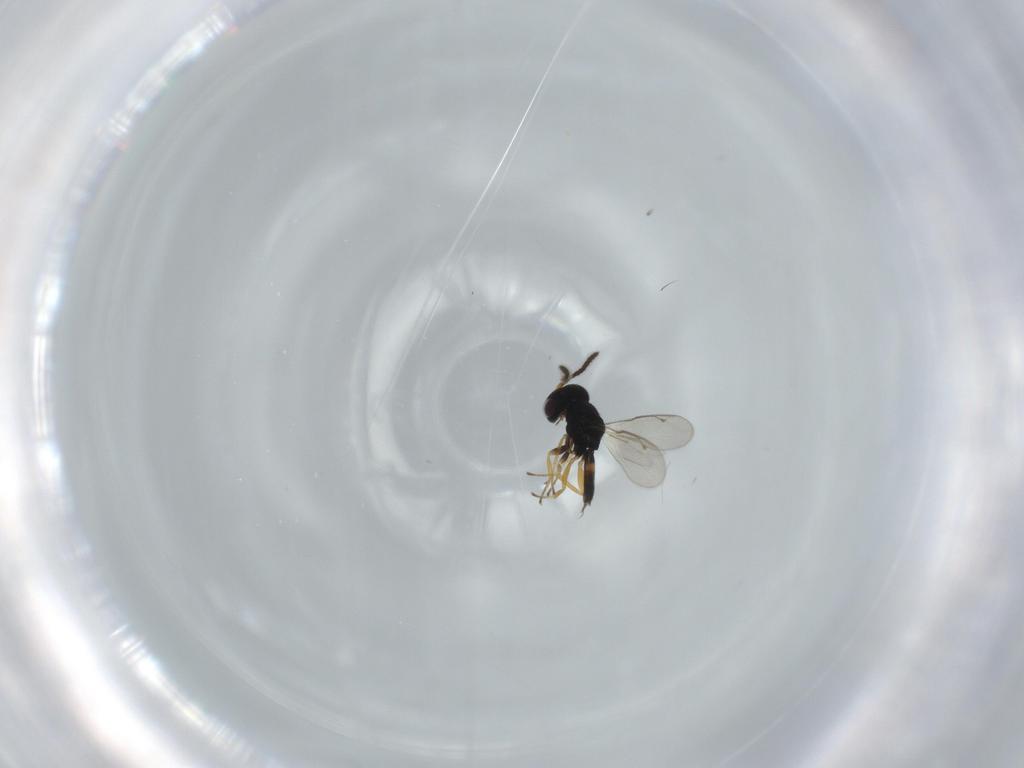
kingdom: Animalia
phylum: Arthropoda
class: Insecta
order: Hymenoptera
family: Pteromalidae
